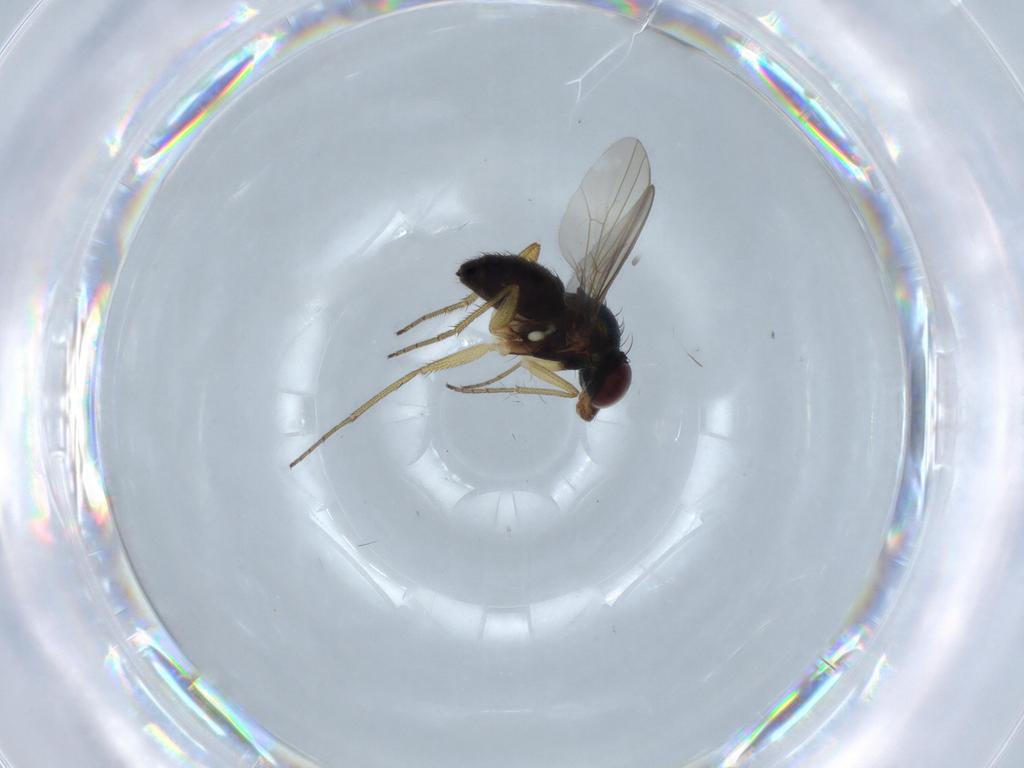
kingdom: Animalia
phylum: Arthropoda
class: Insecta
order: Diptera
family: Dolichopodidae
